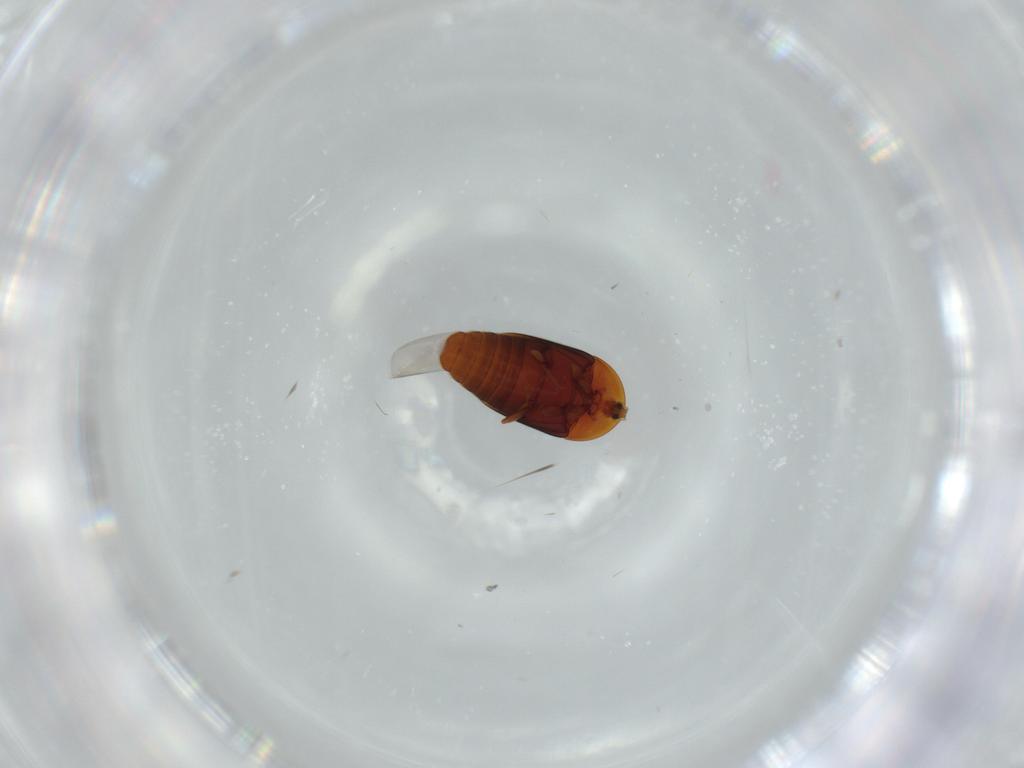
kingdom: Animalia
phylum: Arthropoda
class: Insecta
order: Coleoptera
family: Corylophidae
